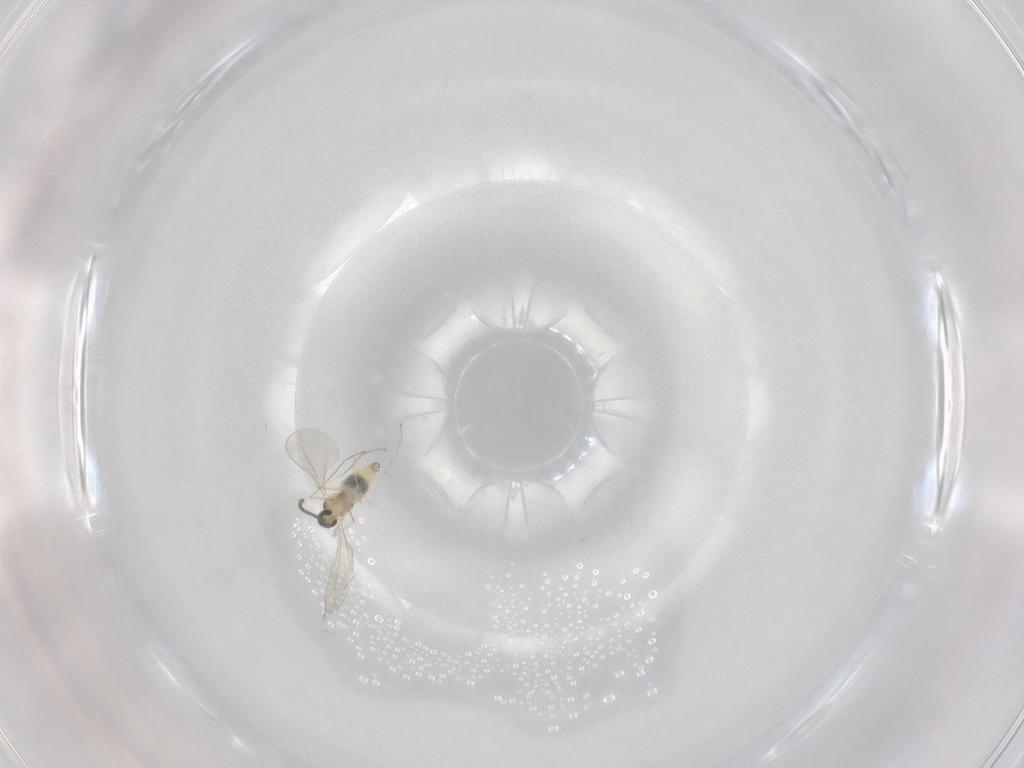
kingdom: Animalia
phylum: Arthropoda
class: Insecta
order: Diptera
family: Cecidomyiidae
